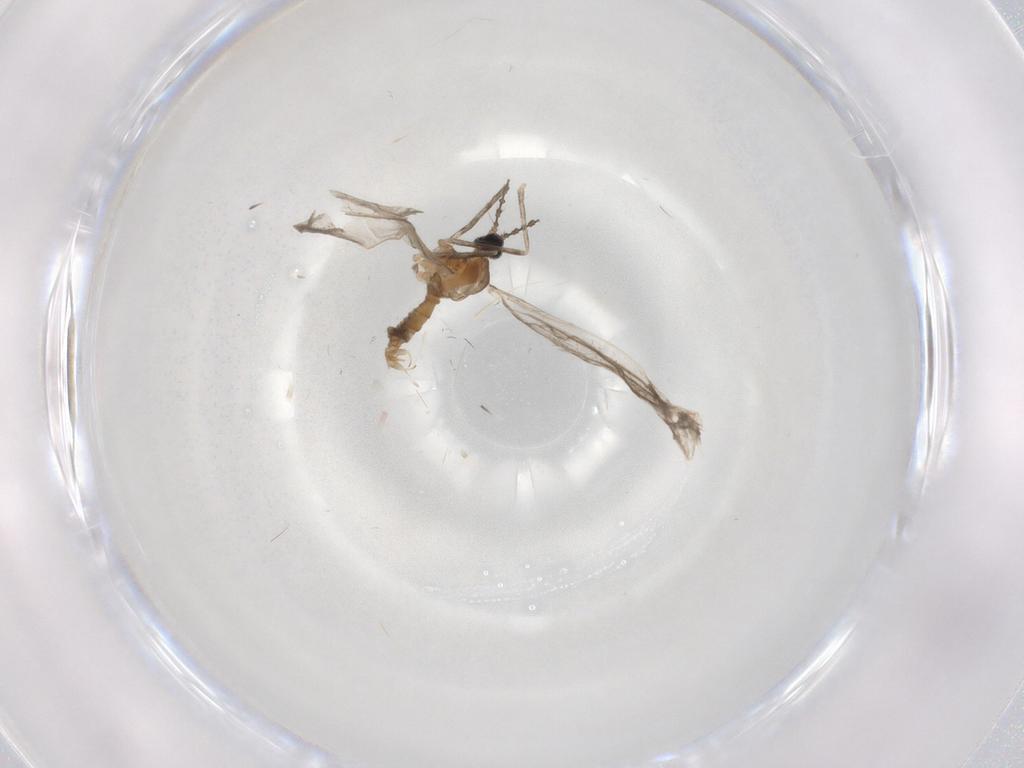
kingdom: Animalia
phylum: Arthropoda
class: Insecta
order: Diptera
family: Cecidomyiidae
